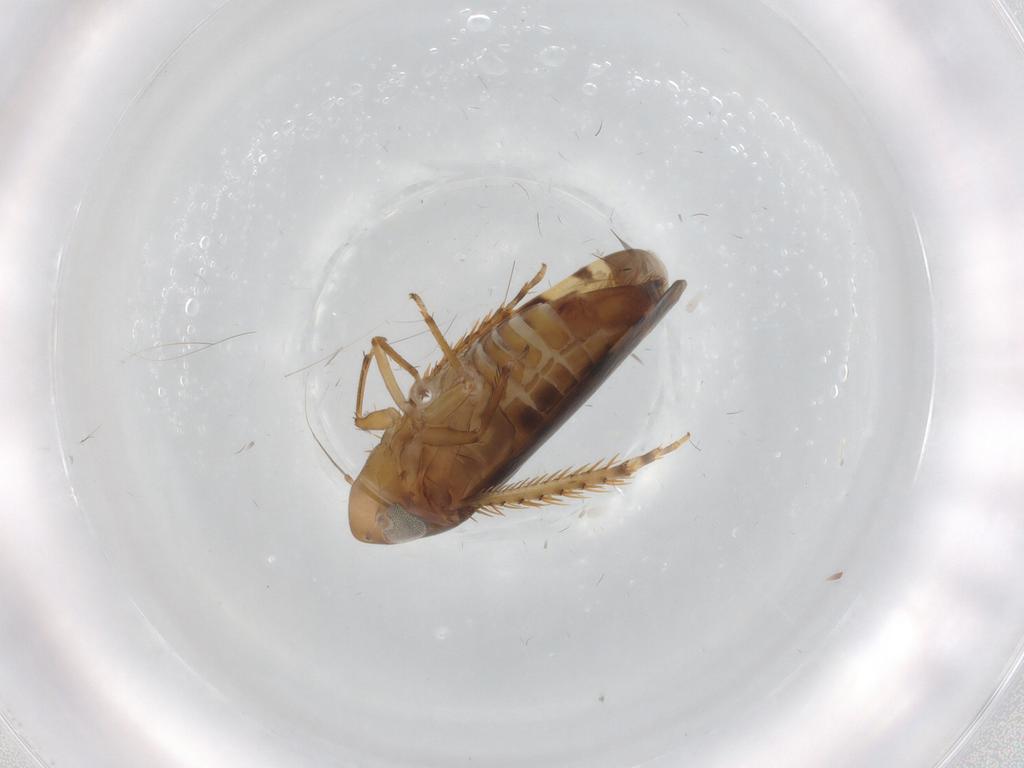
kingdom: Animalia
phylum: Arthropoda
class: Insecta
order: Hemiptera
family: Cicadellidae
